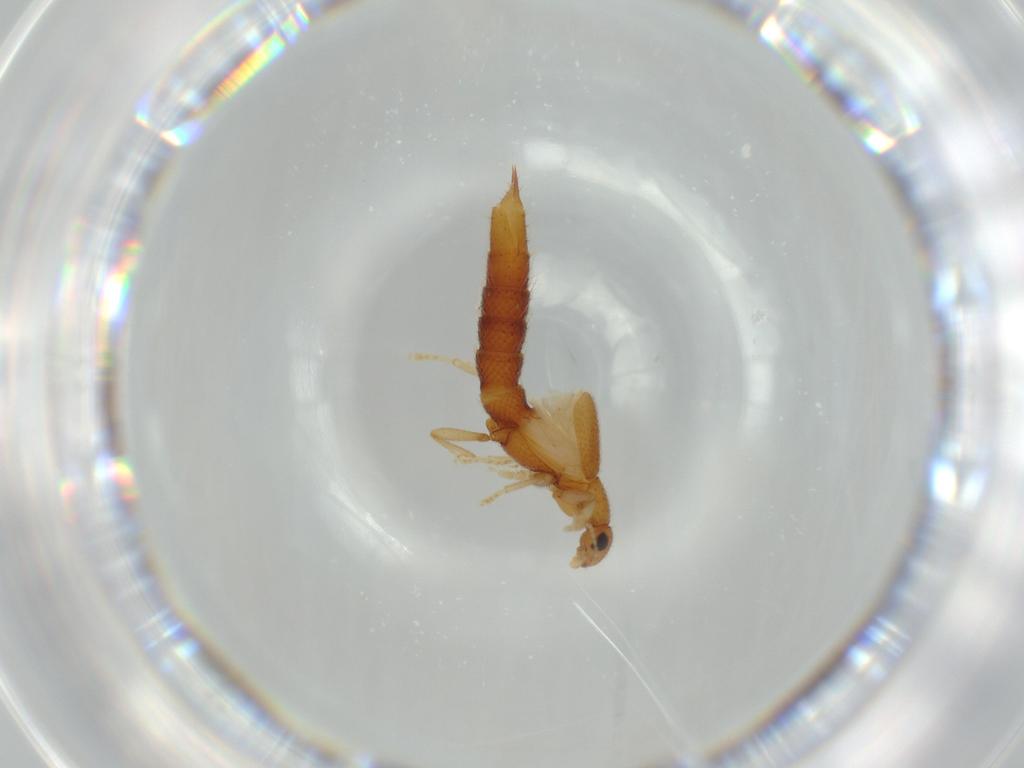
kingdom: Animalia
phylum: Arthropoda
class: Insecta
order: Coleoptera
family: Staphylinidae
